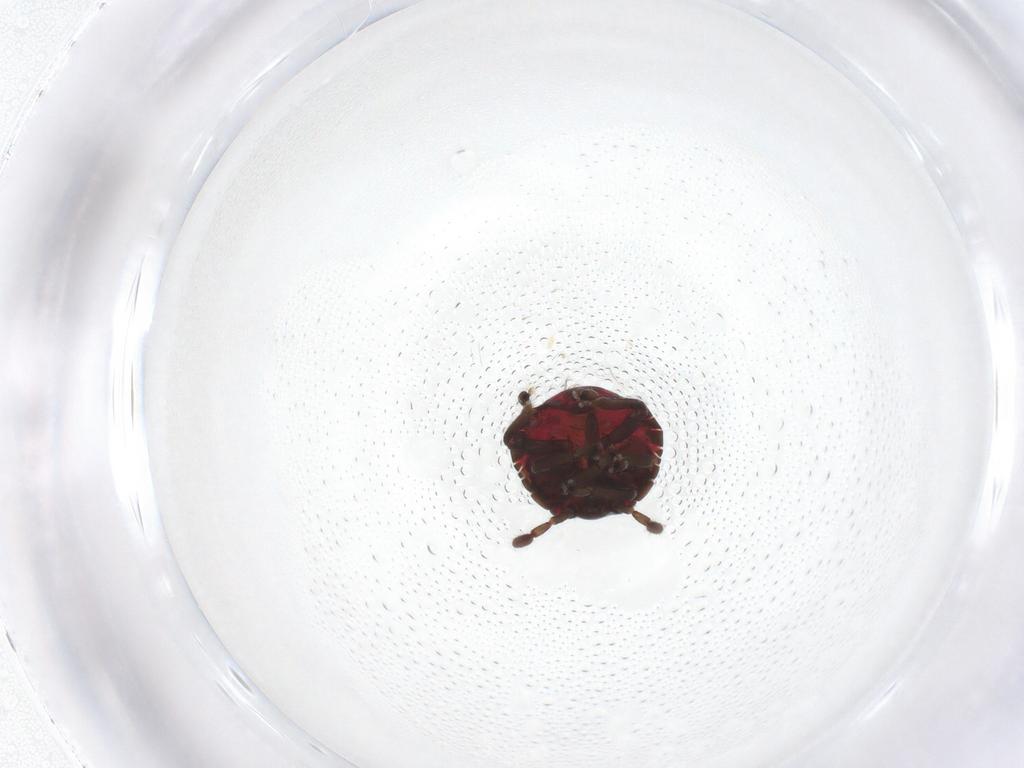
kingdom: Animalia
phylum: Arthropoda
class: Insecta
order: Hemiptera
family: Pentatomidae
